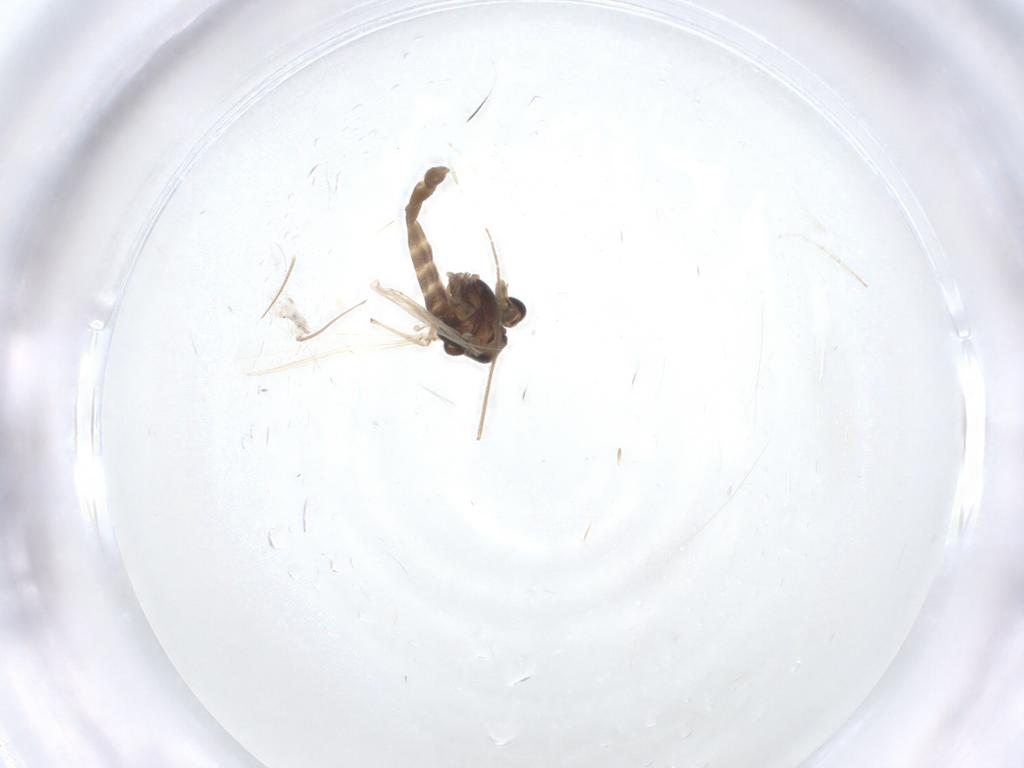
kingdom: Animalia
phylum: Arthropoda
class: Insecta
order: Diptera
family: Chironomidae
